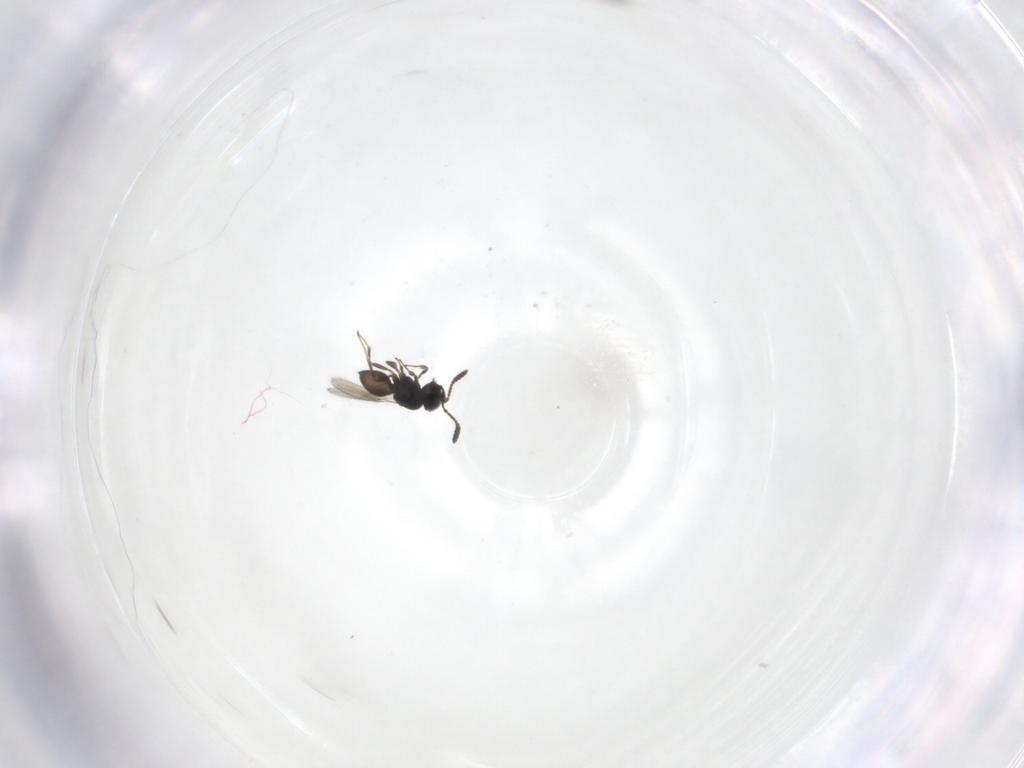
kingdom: Animalia
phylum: Arthropoda
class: Insecta
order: Hymenoptera
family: Scelionidae
